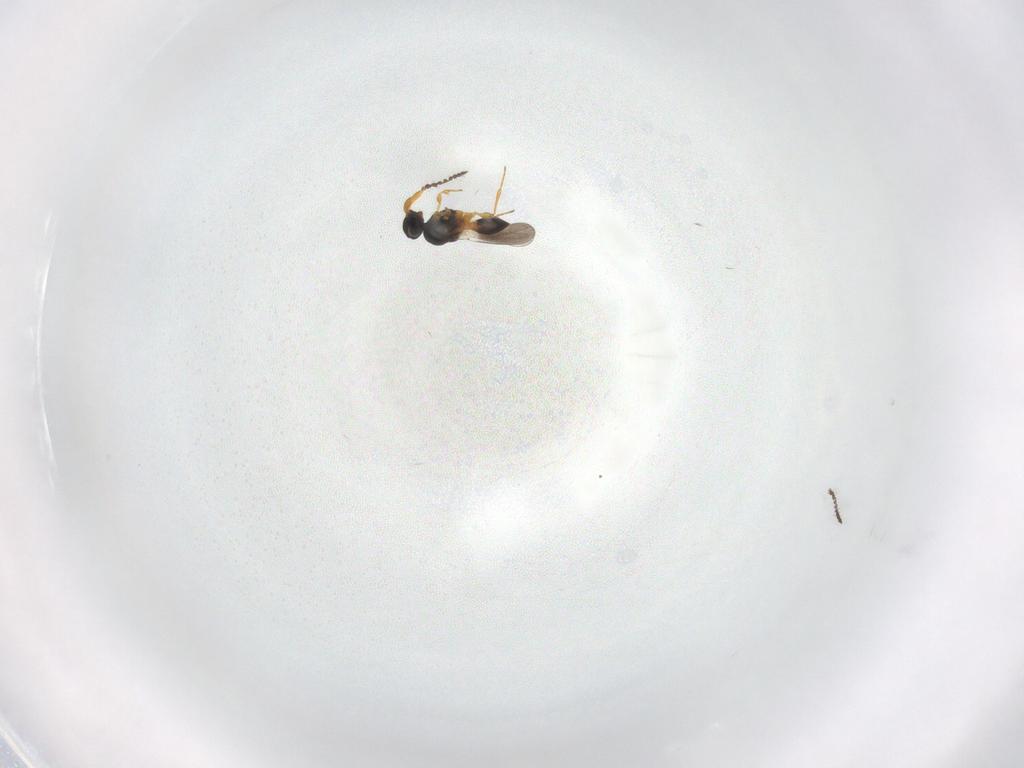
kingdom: Animalia
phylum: Arthropoda
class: Insecta
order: Hymenoptera
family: Platygastridae
